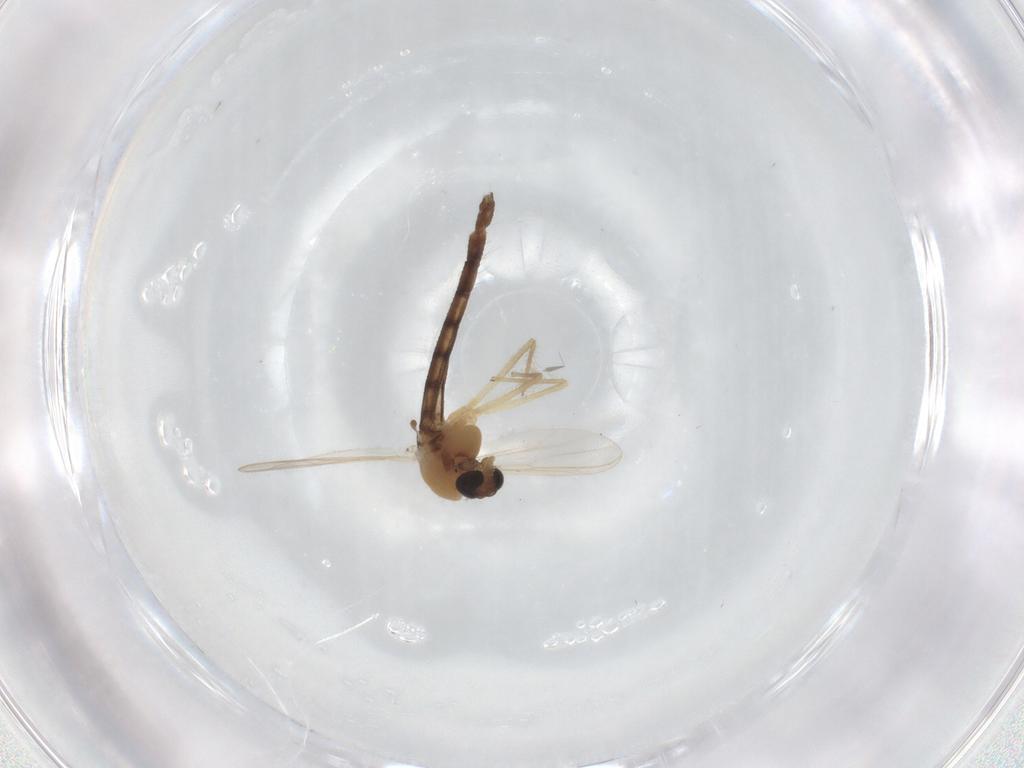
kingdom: Animalia
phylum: Arthropoda
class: Insecta
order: Diptera
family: Chironomidae
